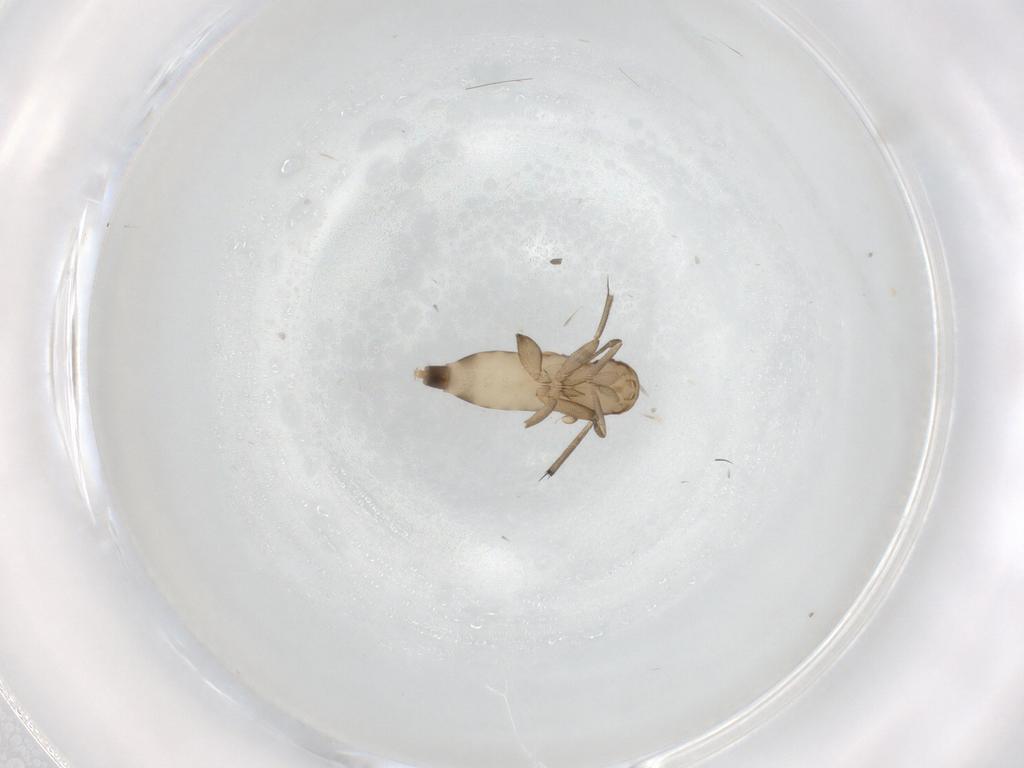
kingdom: Animalia
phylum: Arthropoda
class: Insecta
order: Diptera
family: Phoridae
